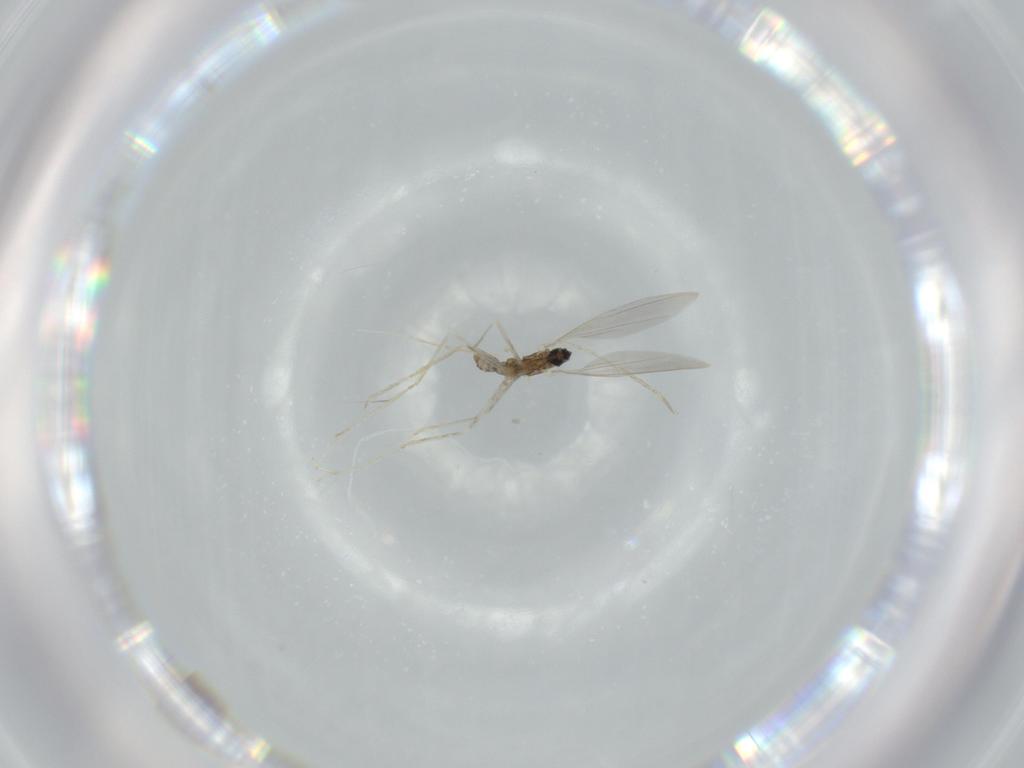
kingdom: Animalia
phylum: Arthropoda
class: Insecta
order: Diptera
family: Cecidomyiidae
